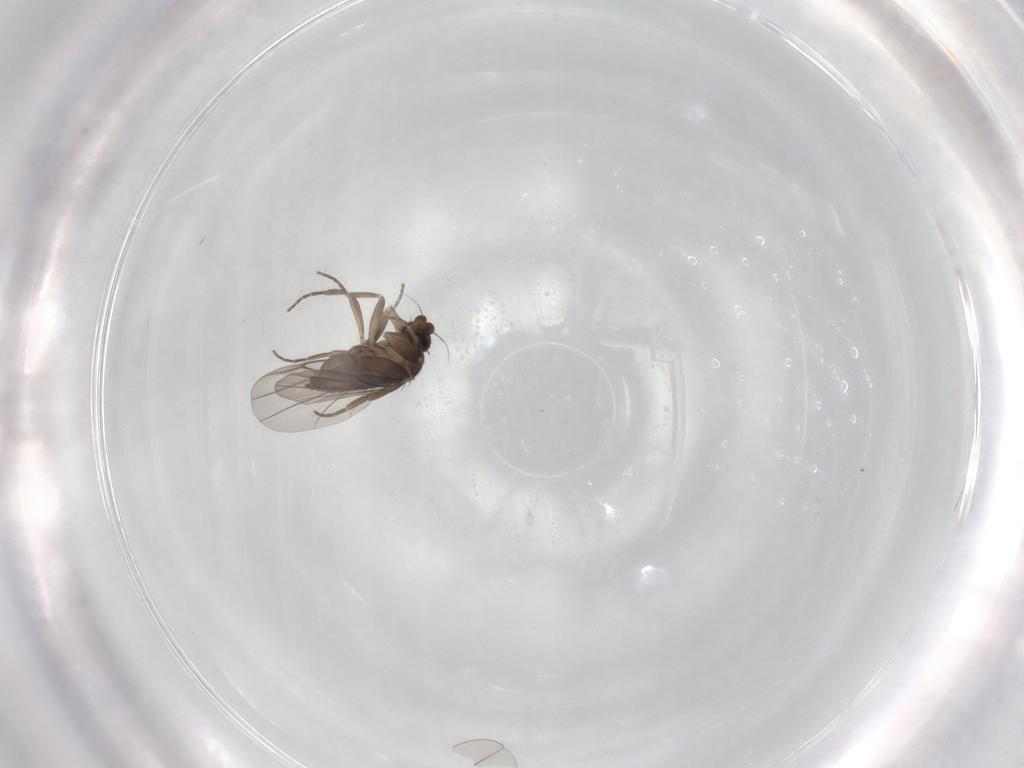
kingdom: Animalia
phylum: Arthropoda
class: Insecta
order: Diptera
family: Phoridae
